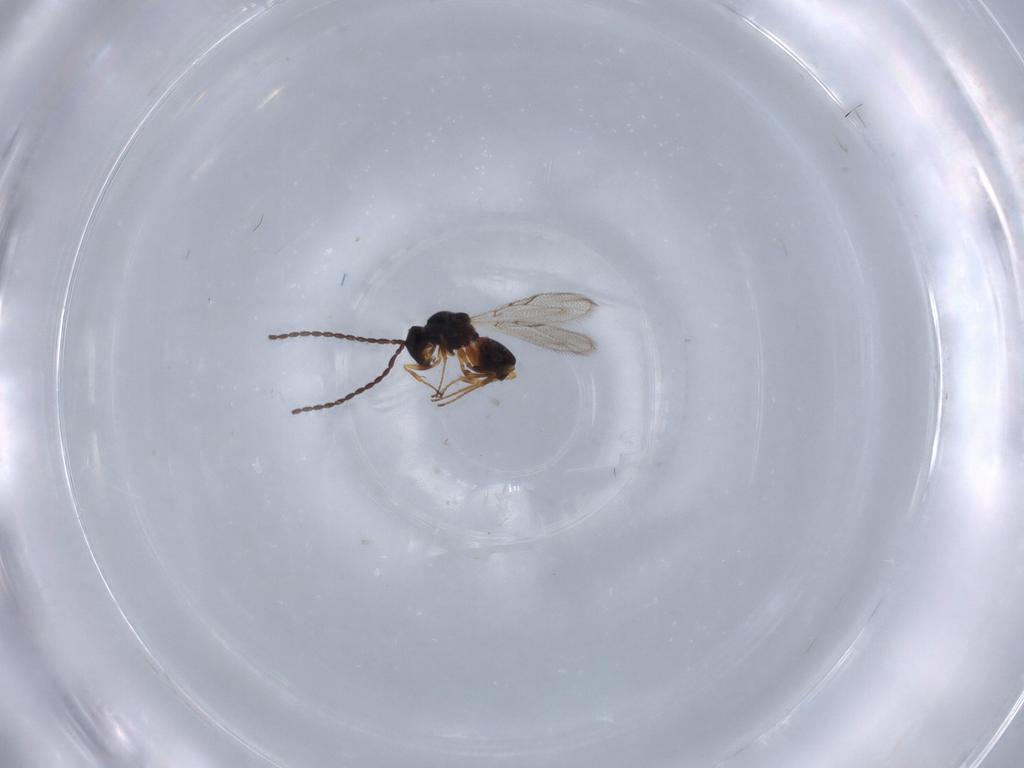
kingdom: Animalia
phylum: Arthropoda
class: Insecta
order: Hymenoptera
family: Figitidae
